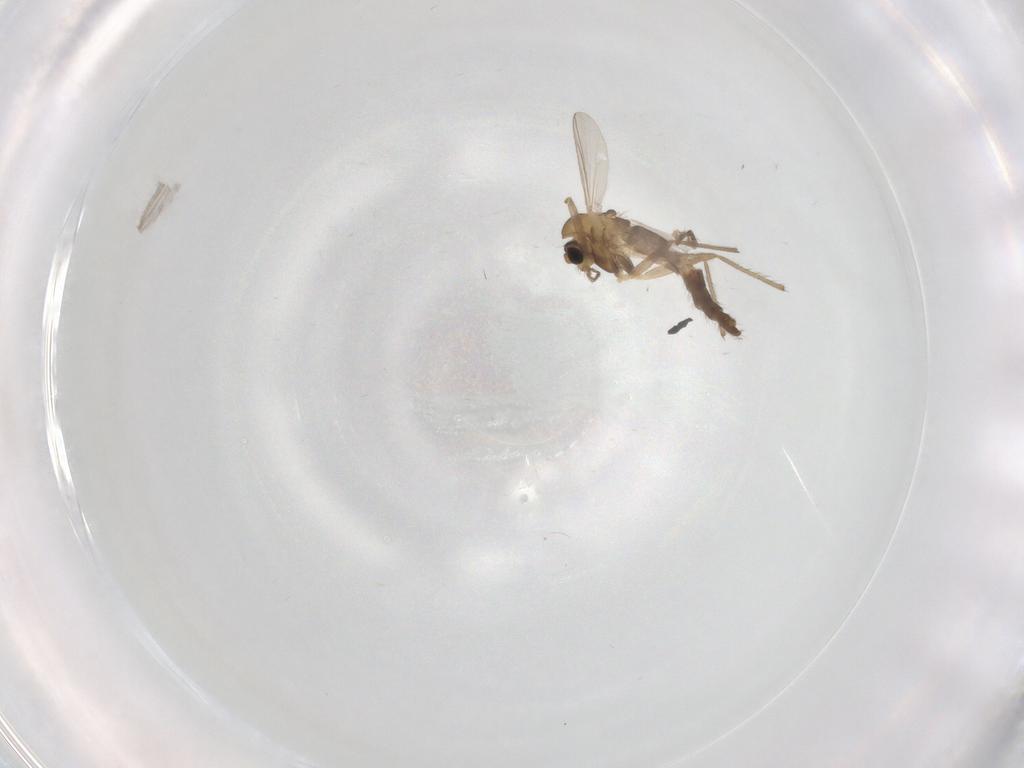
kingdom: Animalia
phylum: Arthropoda
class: Insecta
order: Diptera
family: Chironomidae
